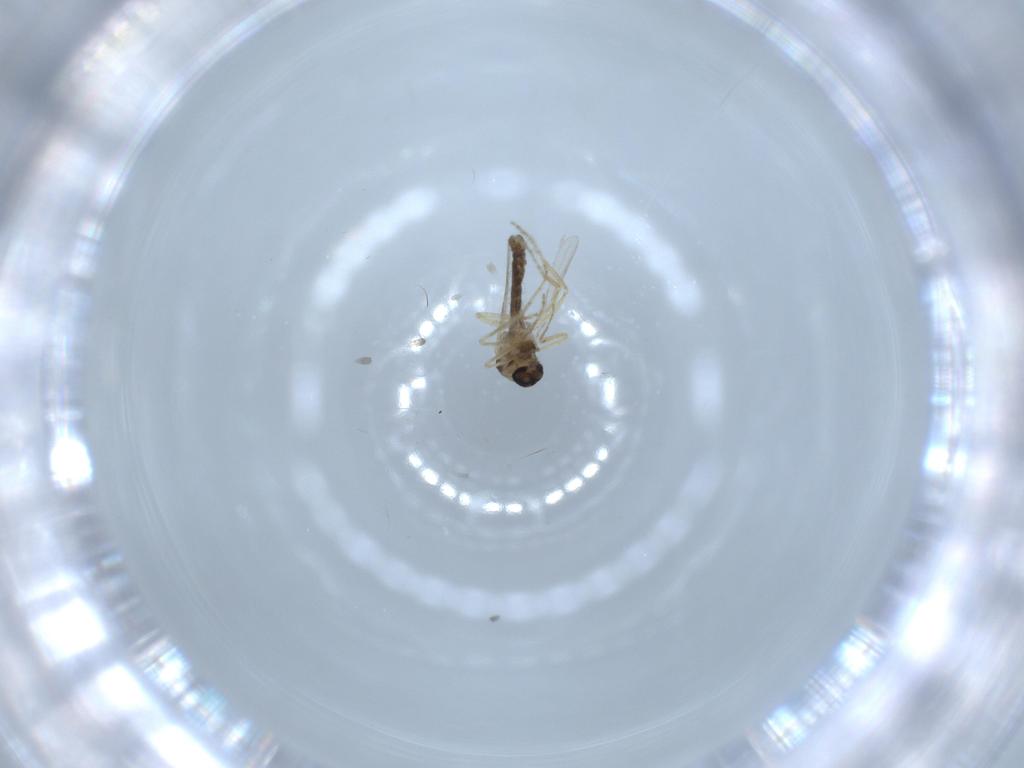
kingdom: Animalia
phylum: Arthropoda
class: Insecta
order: Diptera
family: Ceratopogonidae
